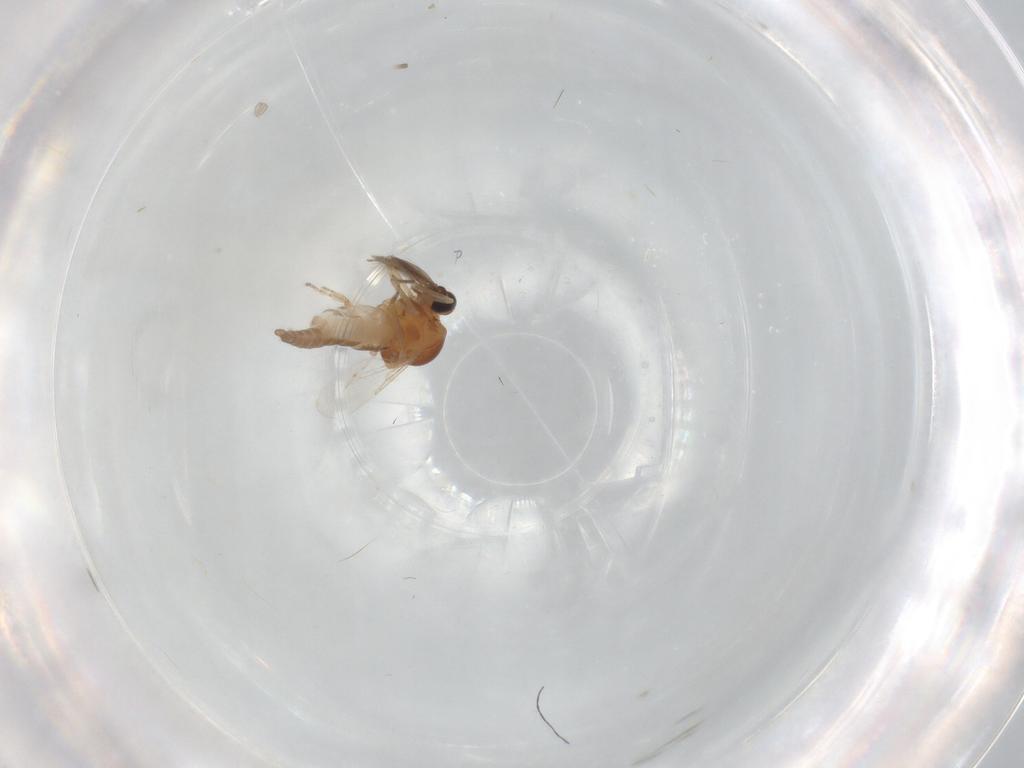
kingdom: Animalia
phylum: Arthropoda
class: Insecta
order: Diptera
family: Ceratopogonidae
